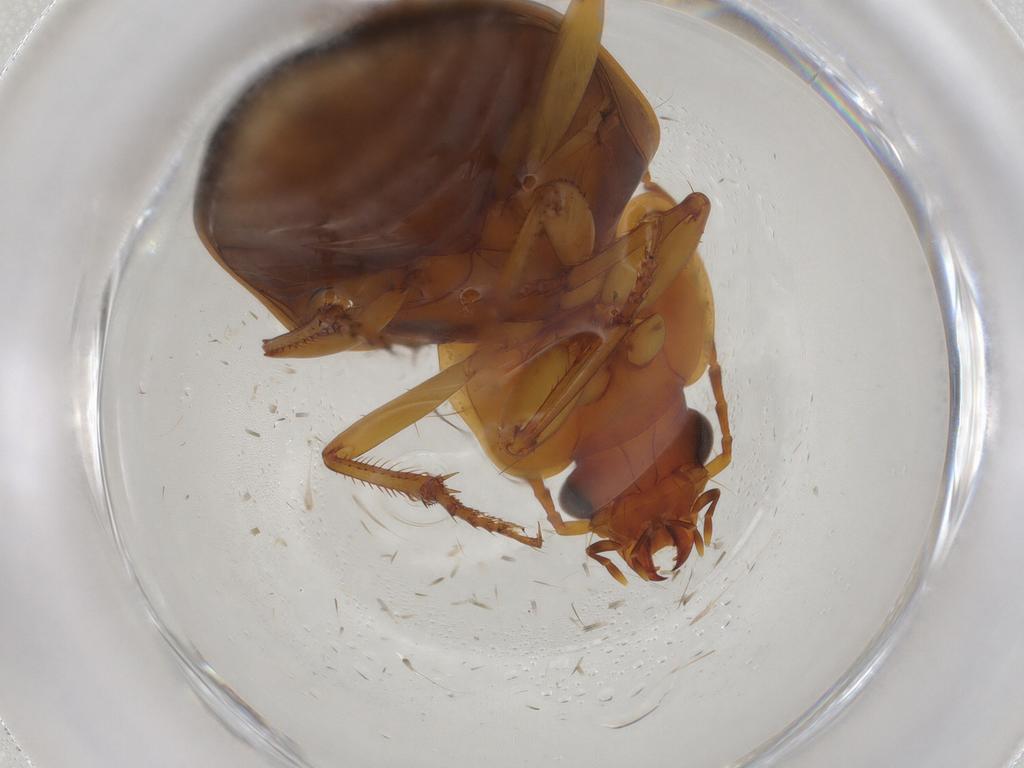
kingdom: Animalia
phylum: Arthropoda
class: Insecta
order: Coleoptera
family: Carabidae
